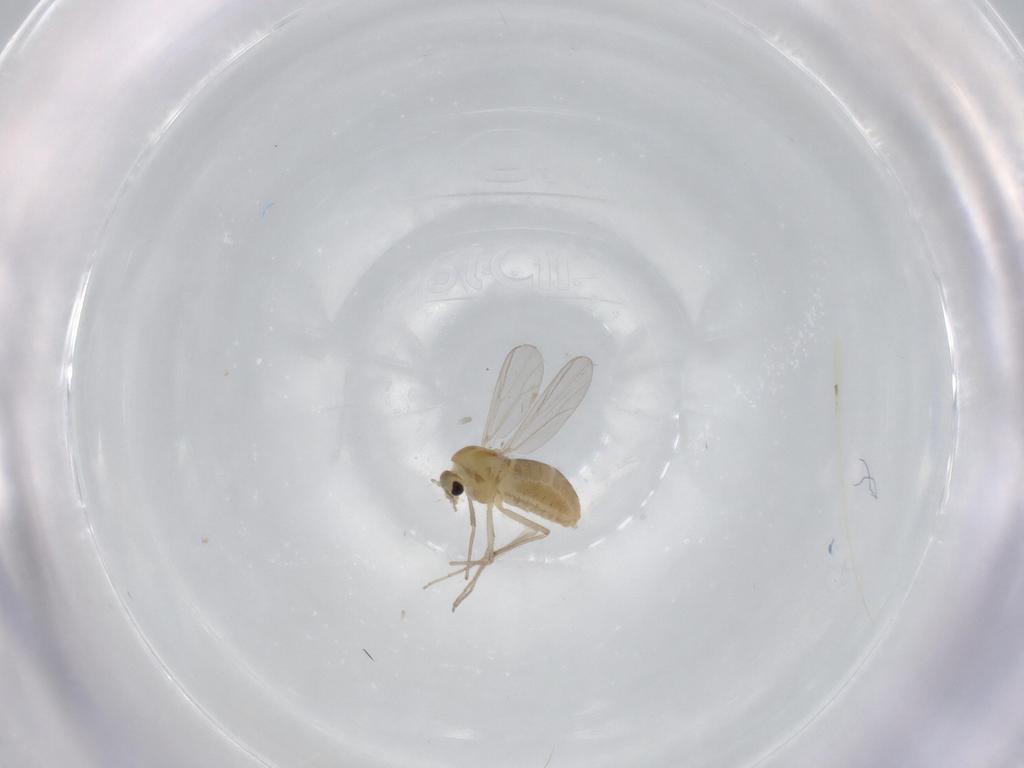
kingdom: Animalia
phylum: Arthropoda
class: Insecta
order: Diptera
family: Chironomidae
